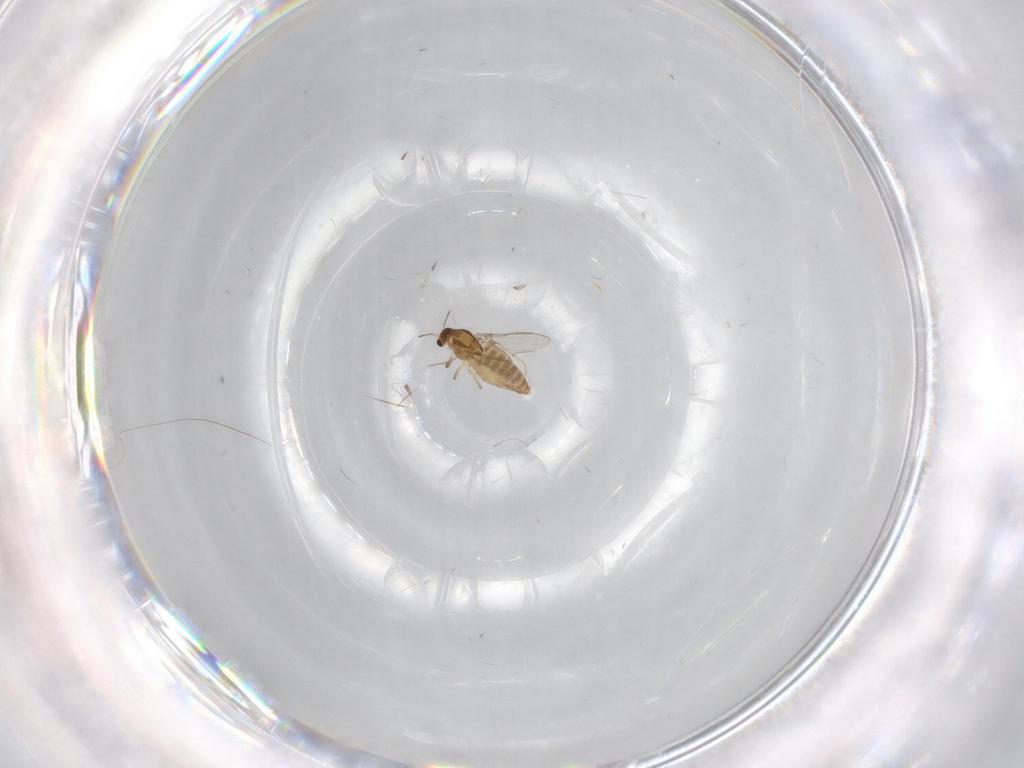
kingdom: Animalia
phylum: Arthropoda
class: Insecta
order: Diptera
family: Chironomidae
